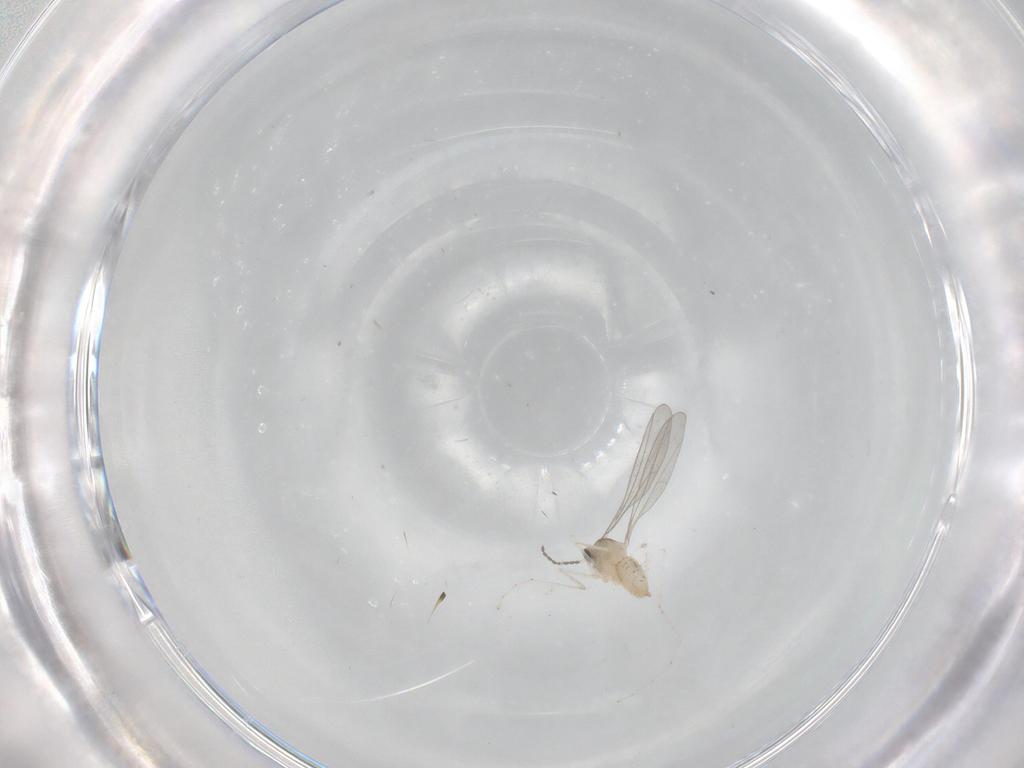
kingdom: Animalia
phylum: Arthropoda
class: Insecta
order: Diptera
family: Cecidomyiidae
